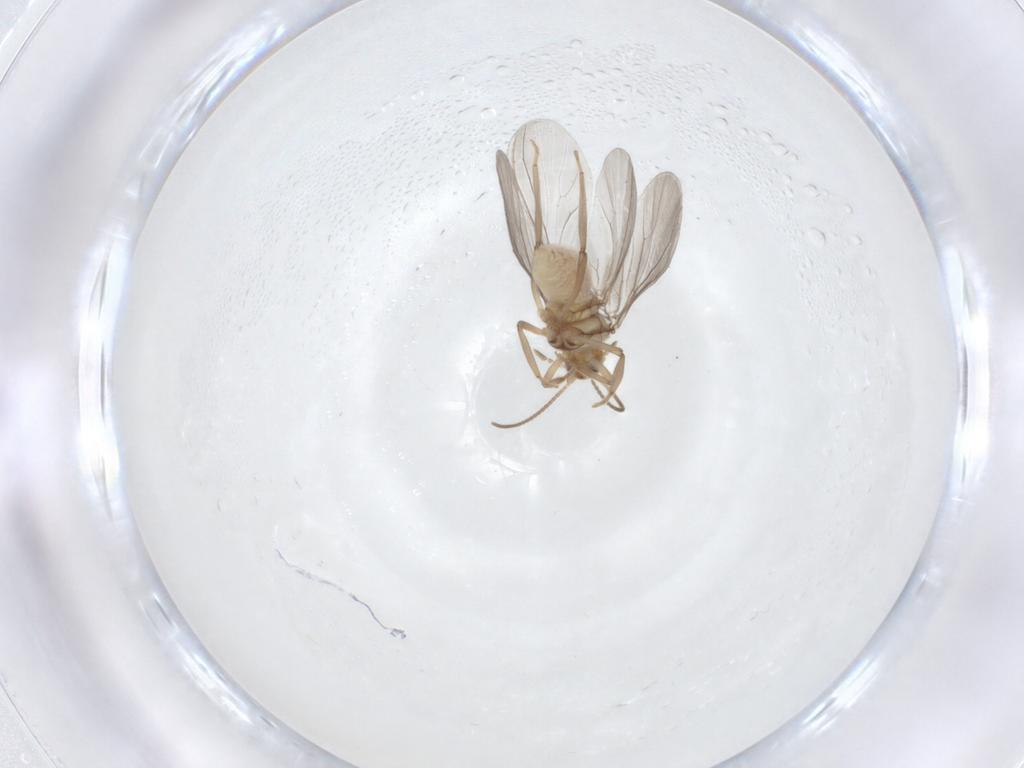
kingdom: Animalia
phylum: Arthropoda
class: Insecta
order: Neuroptera
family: Coniopterygidae
